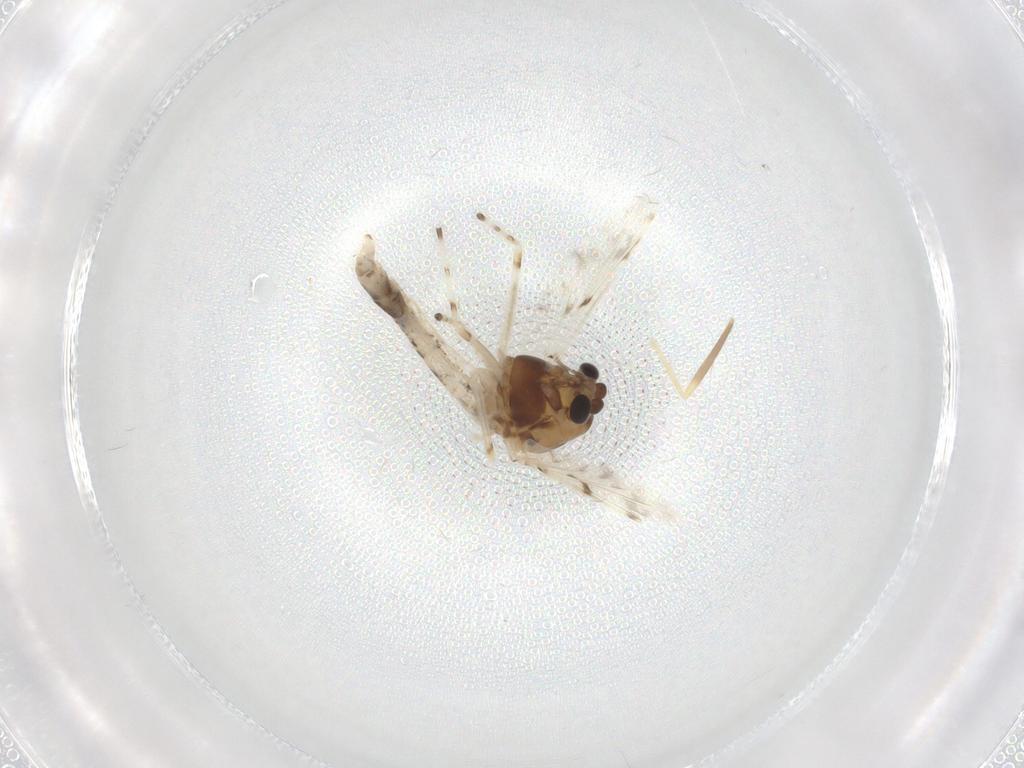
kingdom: Animalia
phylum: Arthropoda
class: Insecta
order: Diptera
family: Chironomidae
